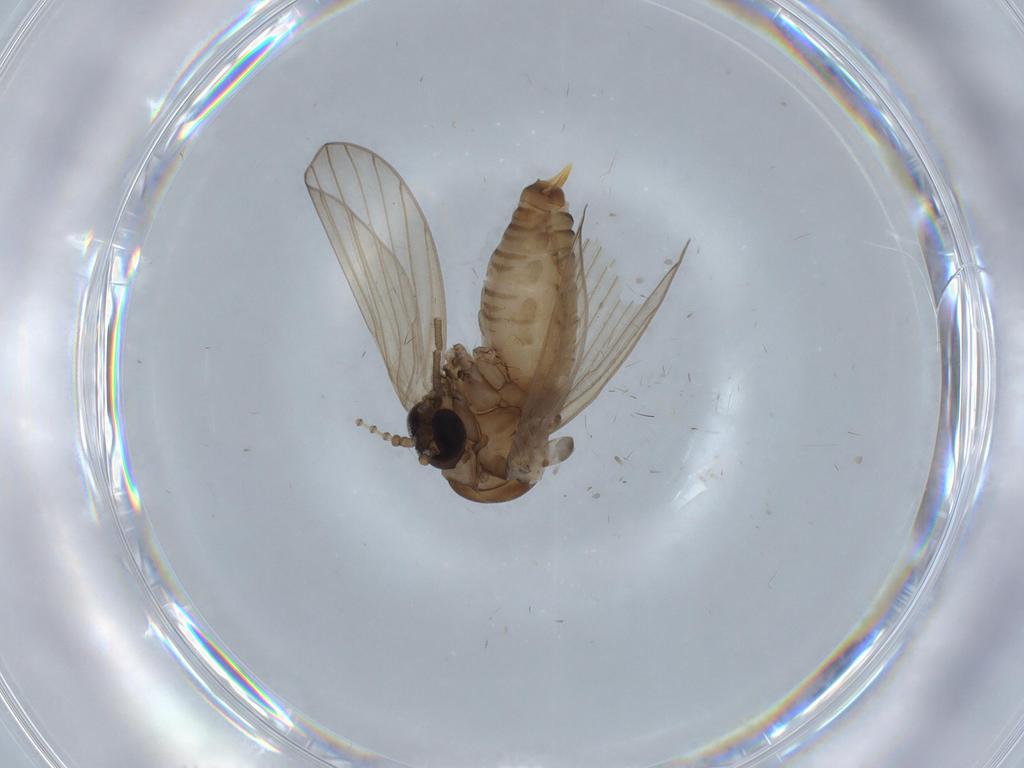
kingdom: Animalia
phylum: Arthropoda
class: Insecta
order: Diptera
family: Psychodidae
